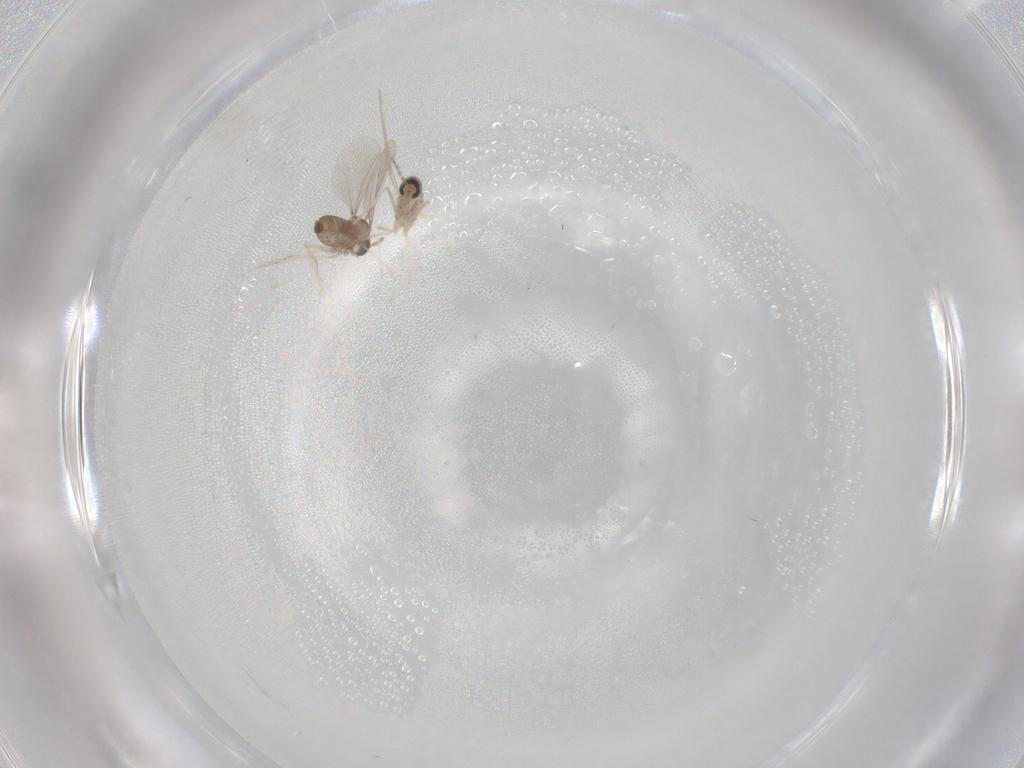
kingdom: Animalia
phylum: Arthropoda
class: Insecta
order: Diptera
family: Cecidomyiidae
